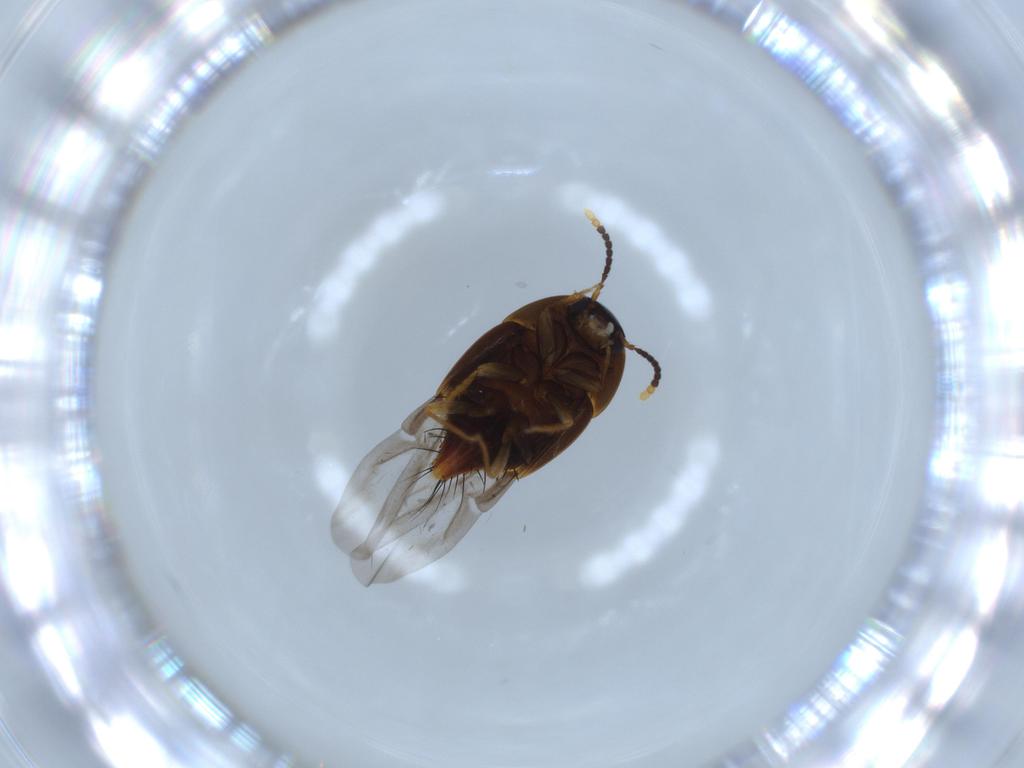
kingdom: Animalia
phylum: Arthropoda
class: Insecta
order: Coleoptera
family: Staphylinidae
